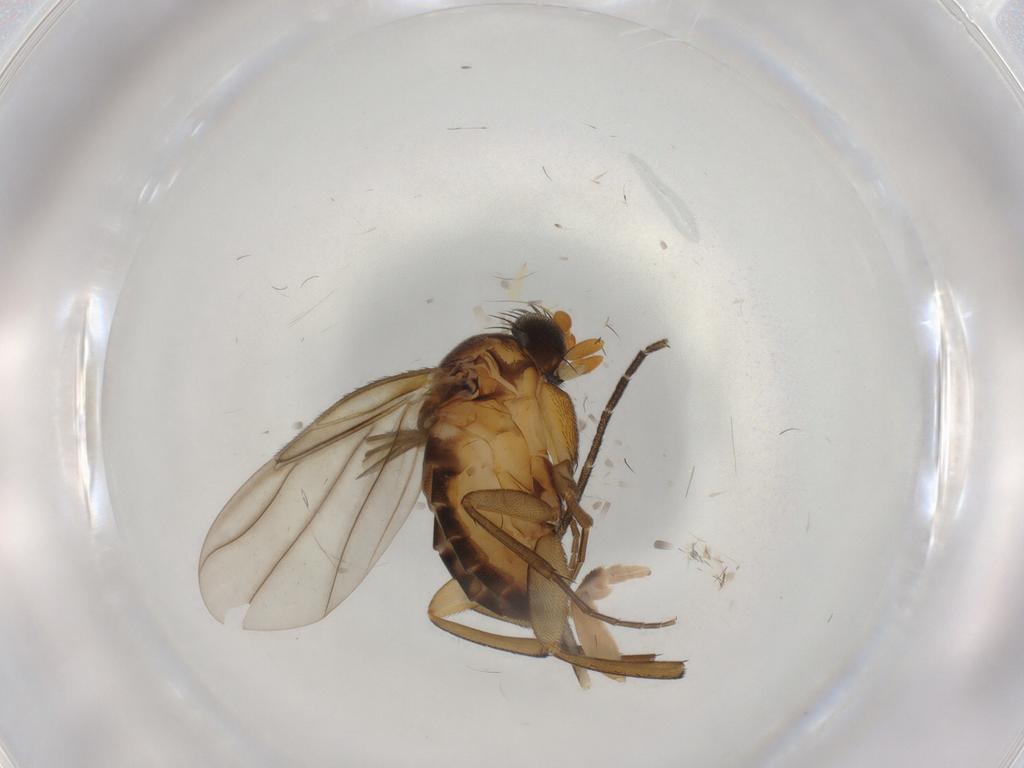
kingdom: Animalia
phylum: Arthropoda
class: Insecta
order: Diptera
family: Phoridae
